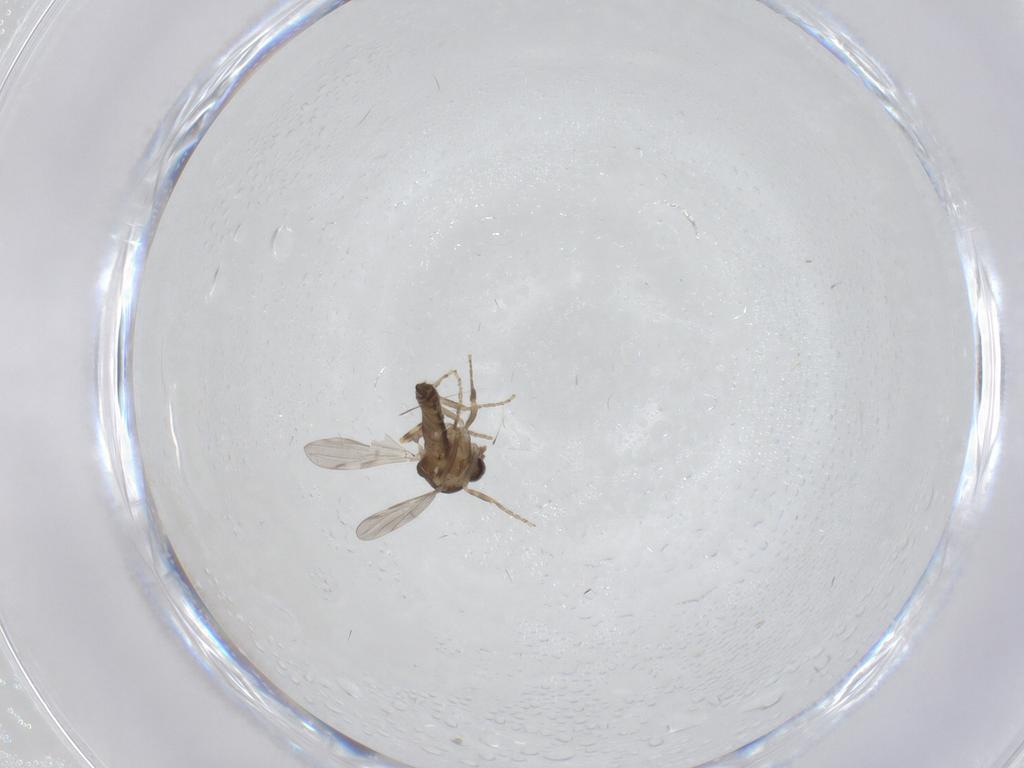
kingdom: Animalia
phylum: Arthropoda
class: Insecta
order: Diptera
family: Ceratopogonidae
